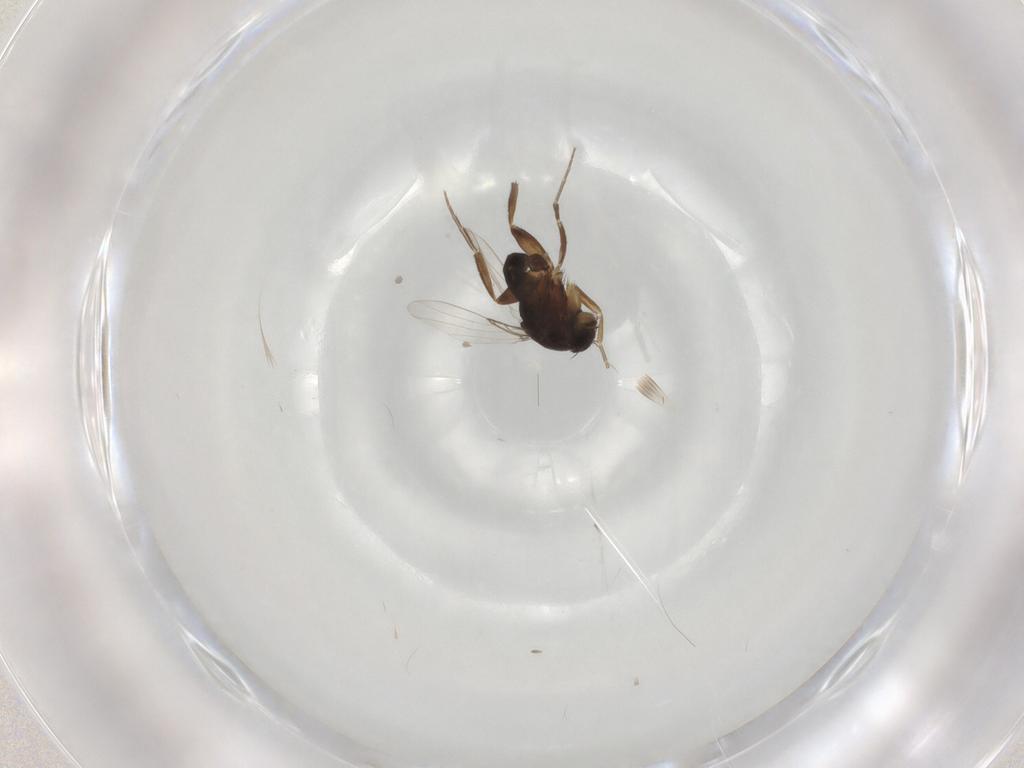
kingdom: Animalia
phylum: Arthropoda
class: Insecta
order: Diptera
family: Phoridae
